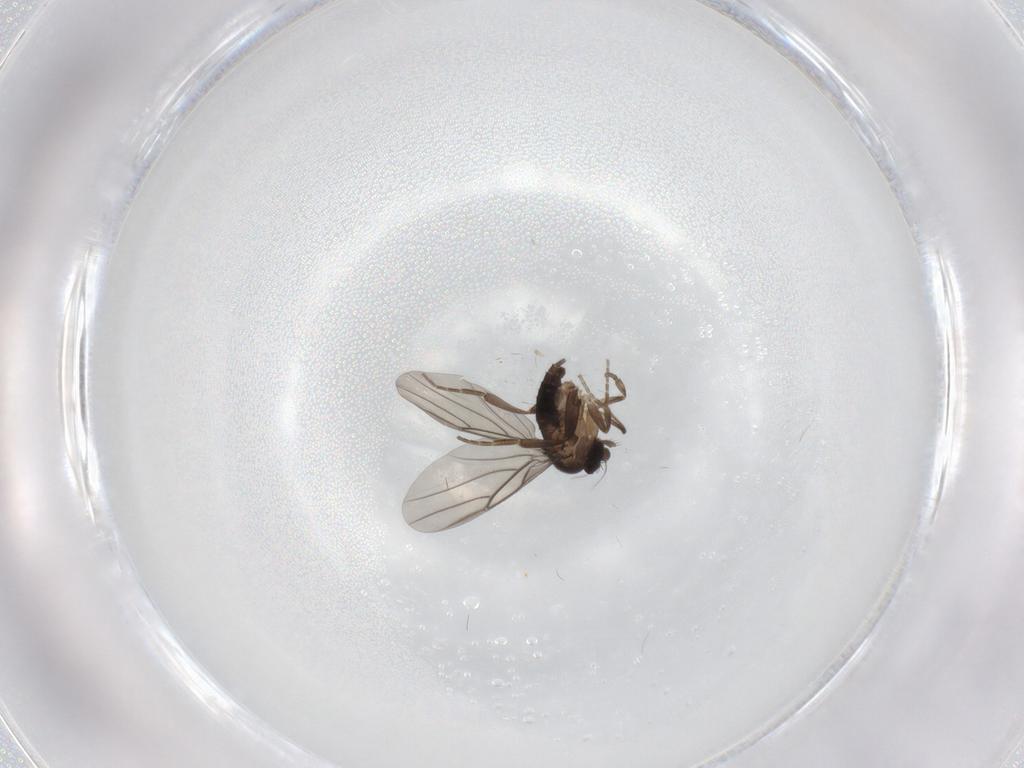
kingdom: Animalia
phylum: Arthropoda
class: Insecta
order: Diptera
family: Phoridae
